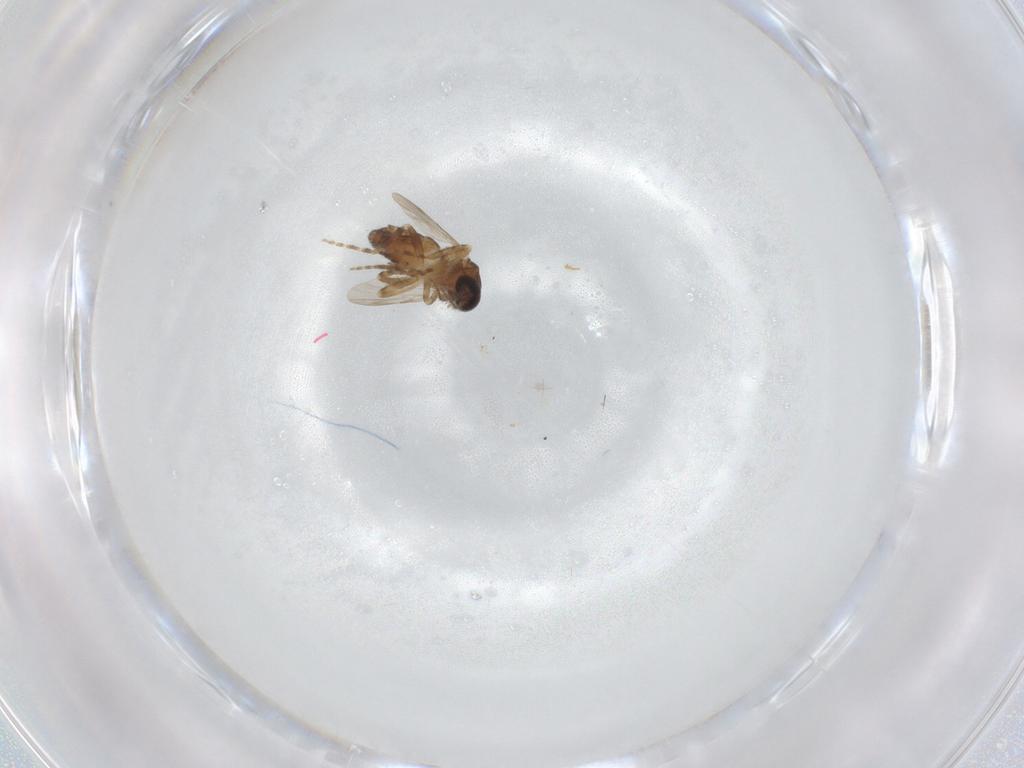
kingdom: Animalia
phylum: Arthropoda
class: Insecta
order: Diptera
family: Ceratopogonidae
